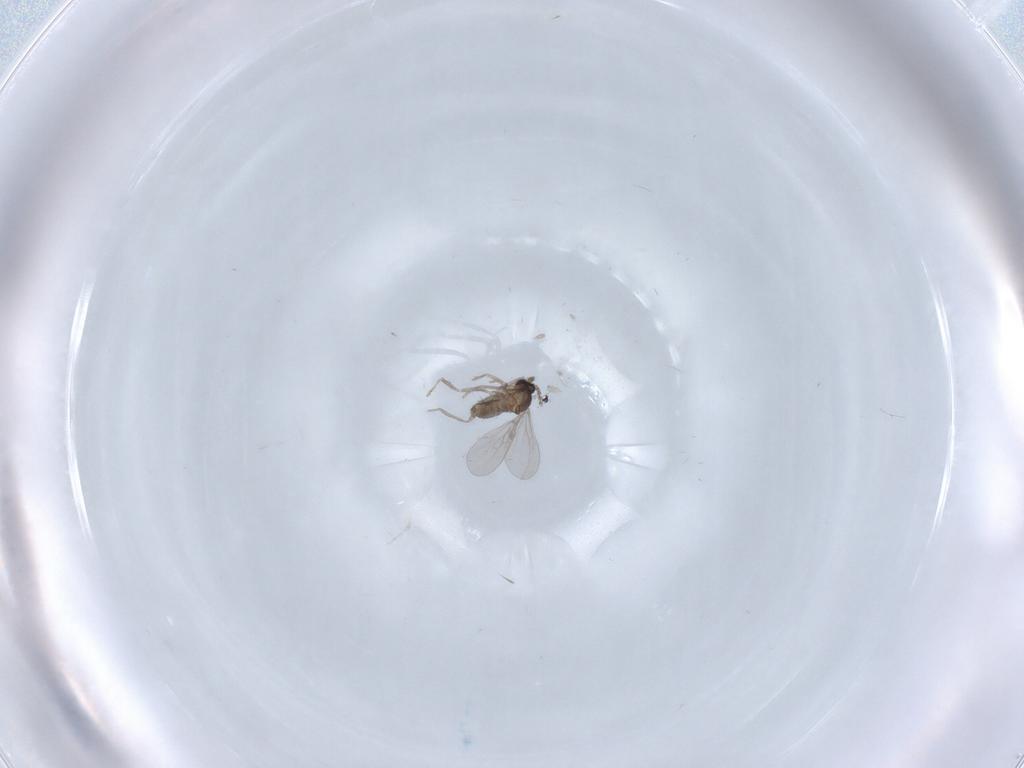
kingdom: Animalia
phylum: Arthropoda
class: Insecta
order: Diptera
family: Cecidomyiidae
